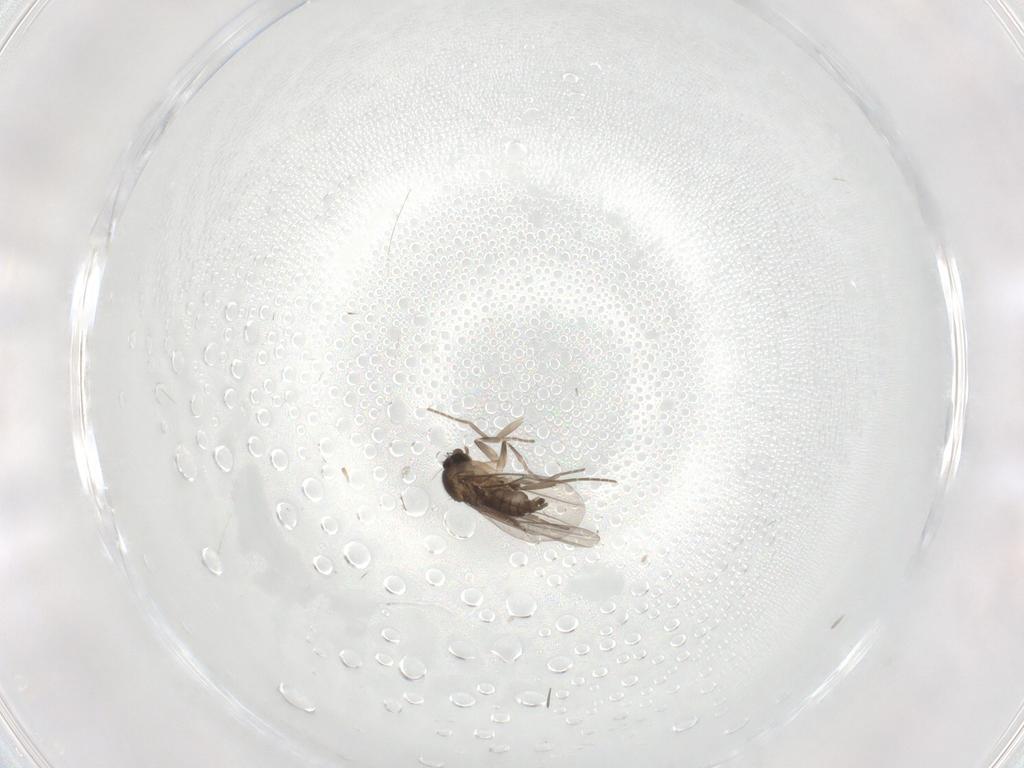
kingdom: Animalia
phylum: Arthropoda
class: Insecta
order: Diptera
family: Sciaridae
